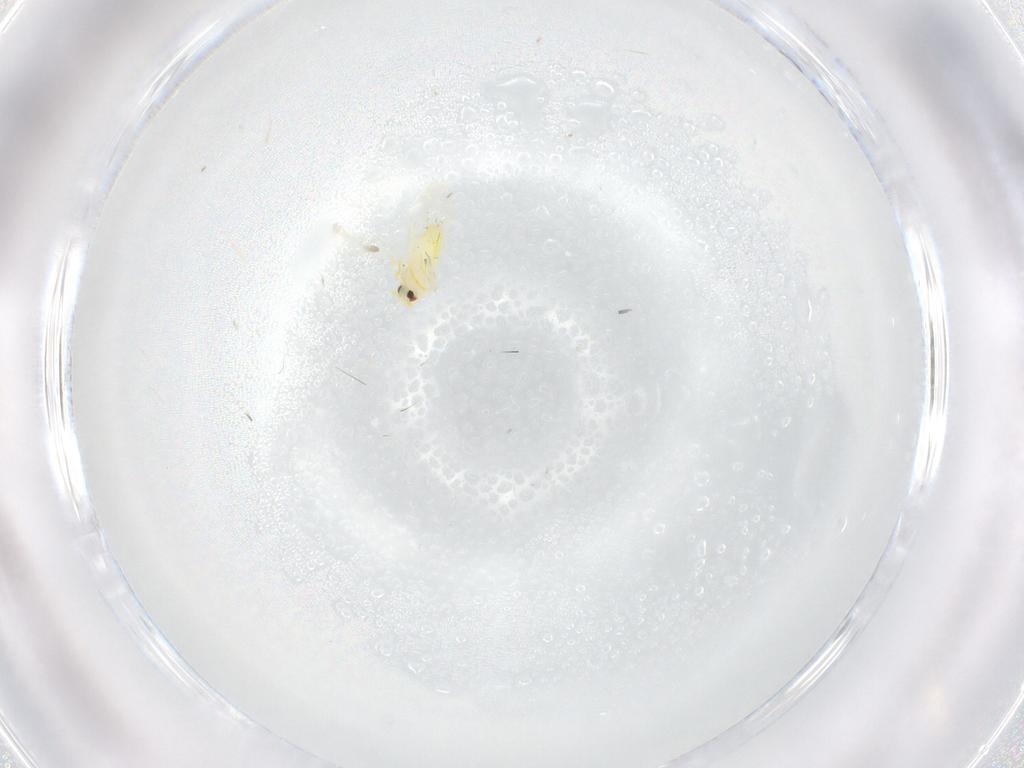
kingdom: Animalia
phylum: Arthropoda
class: Insecta
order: Hemiptera
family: Aleyrodidae
